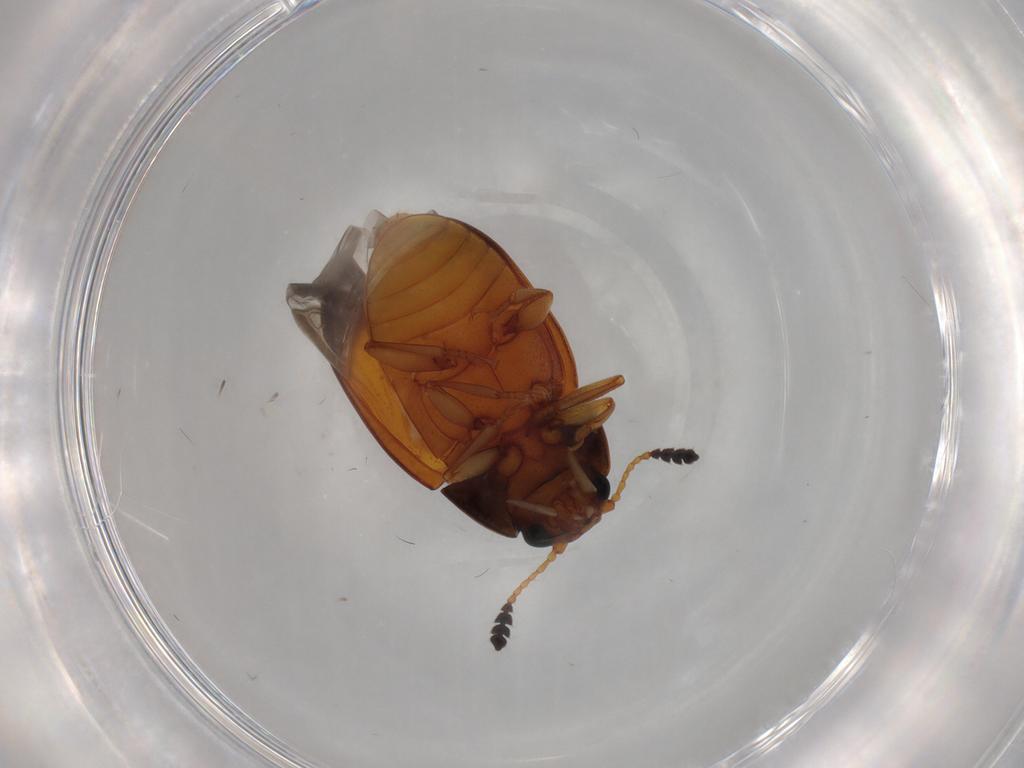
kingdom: Animalia
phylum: Arthropoda
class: Insecta
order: Coleoptera
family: Erotylidae
